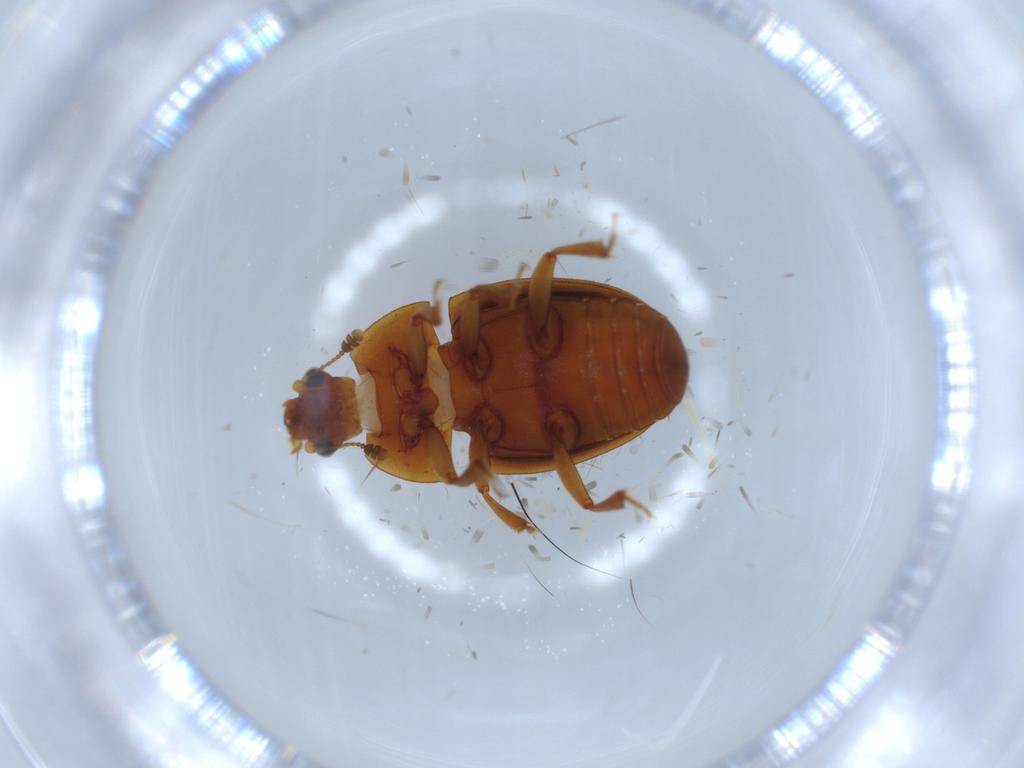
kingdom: Animalia
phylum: Arthropoda
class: Insecta
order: Coleoptera
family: Nitidulidae
